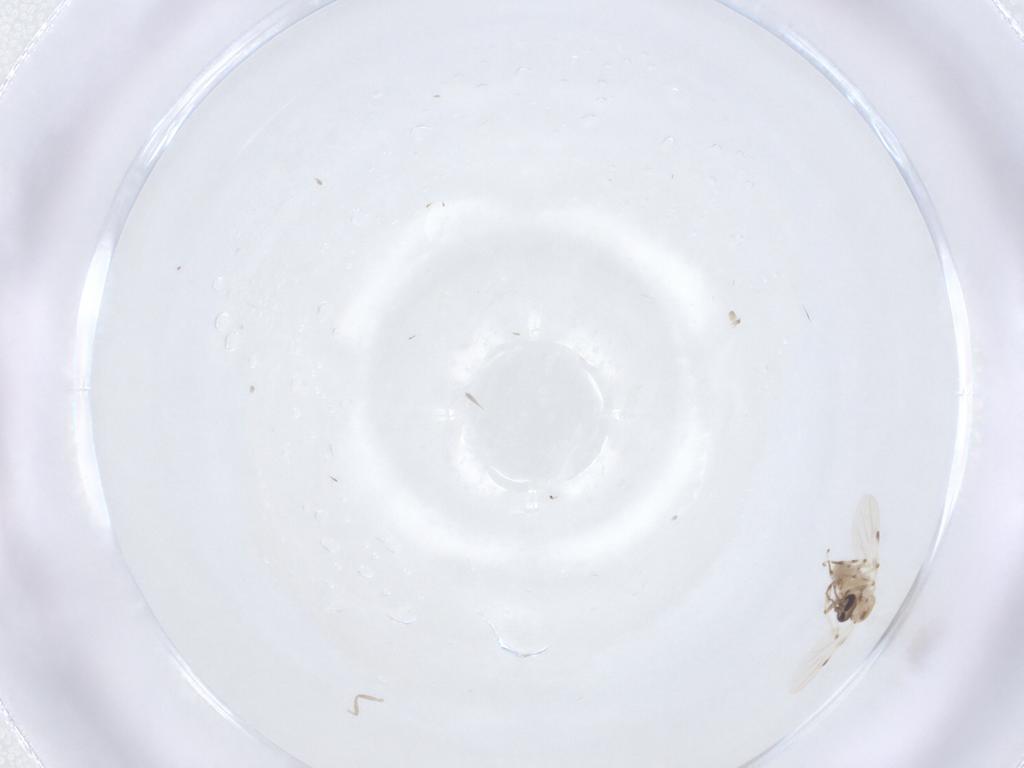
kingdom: Animalia
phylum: Arthropoda
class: Insecta
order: Diptera
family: Ceratopogonidae
